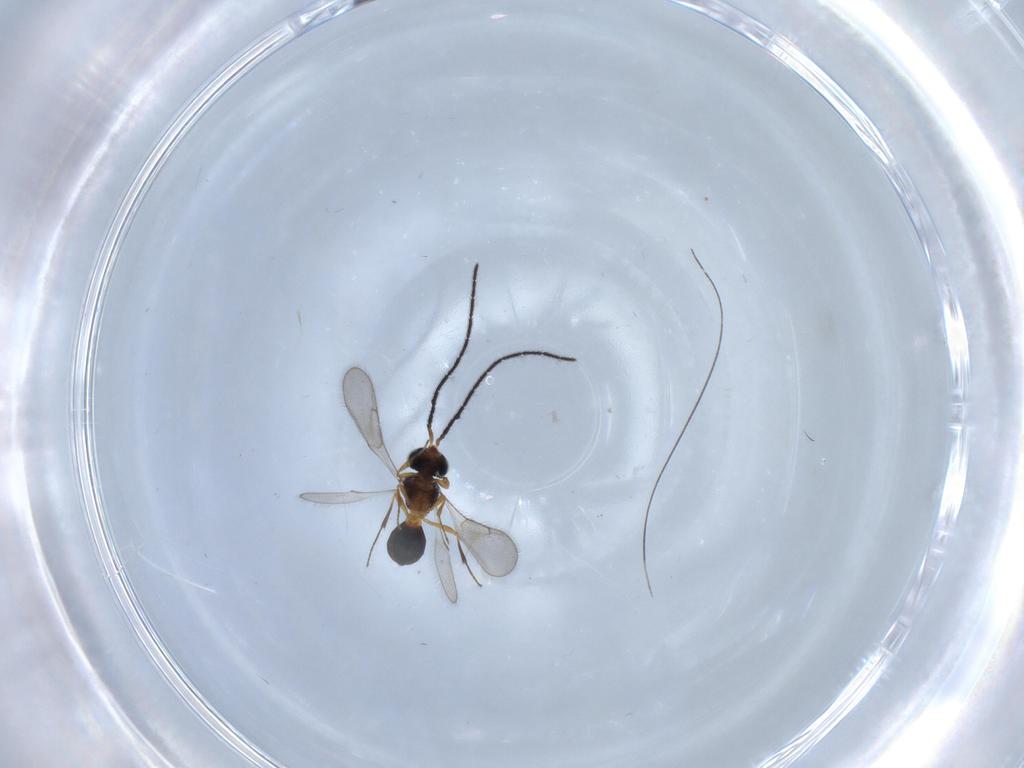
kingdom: Animalia
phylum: Arthropoda
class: Insecta
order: Hymenoptera
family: Scelionidae
